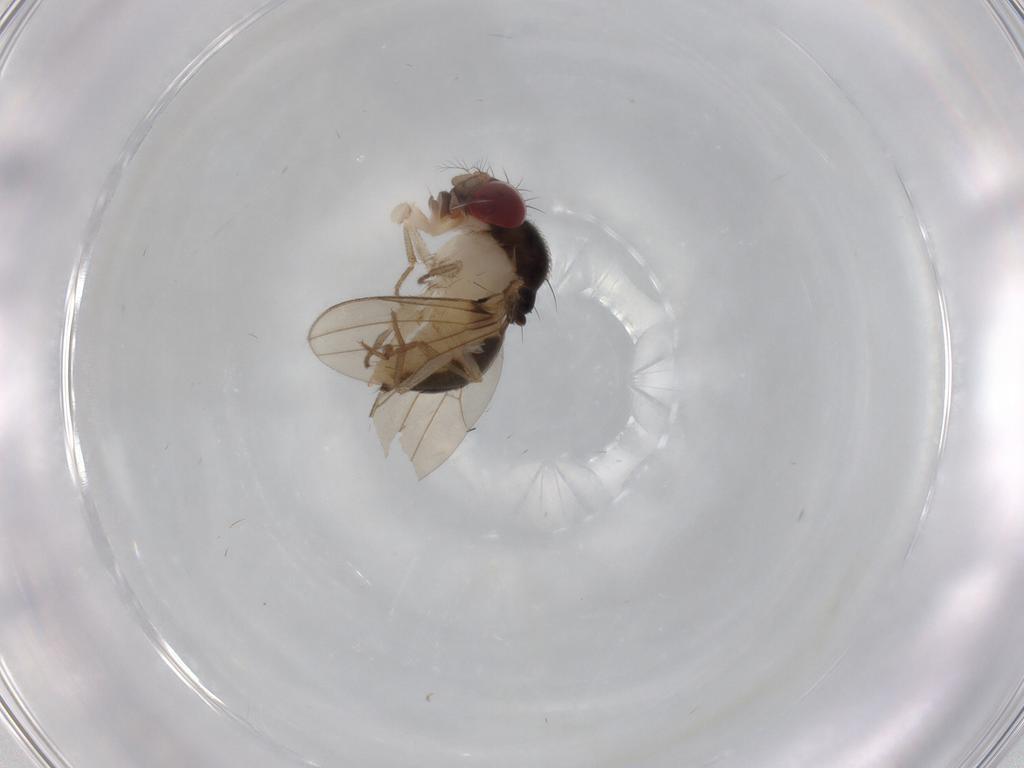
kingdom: Animalia
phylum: Arthropoda
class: Insecta
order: Diptera
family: Drosophilidae
